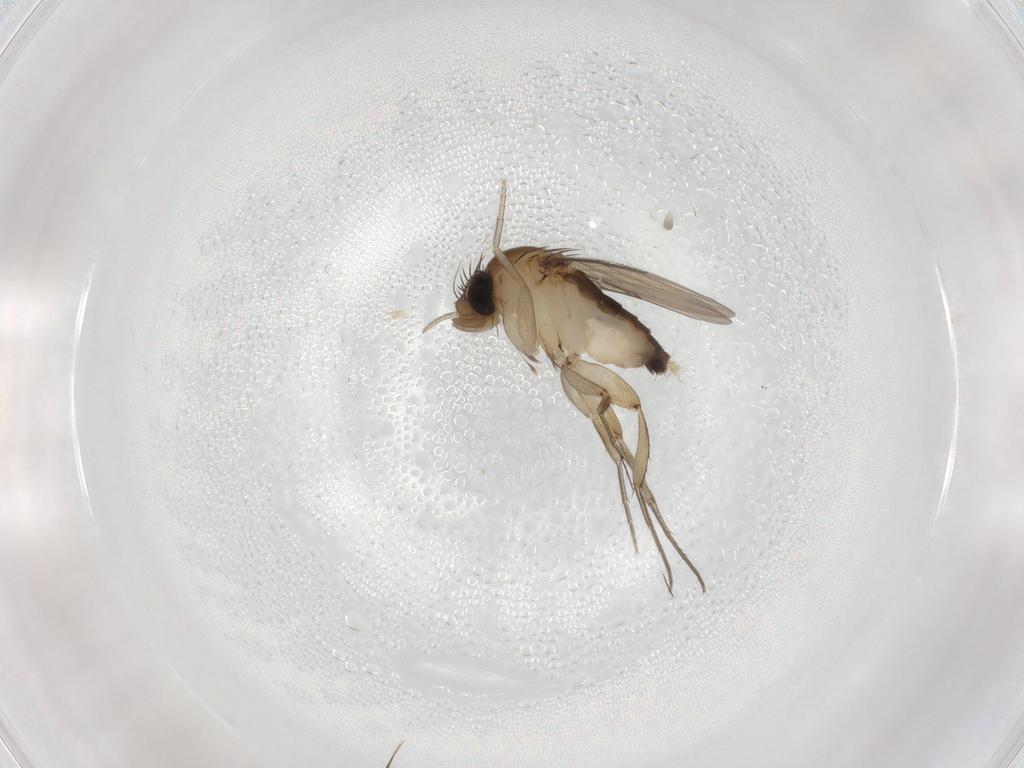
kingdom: Animalia
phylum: Arthropoda
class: Insecta
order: Diptera
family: Phoridae
